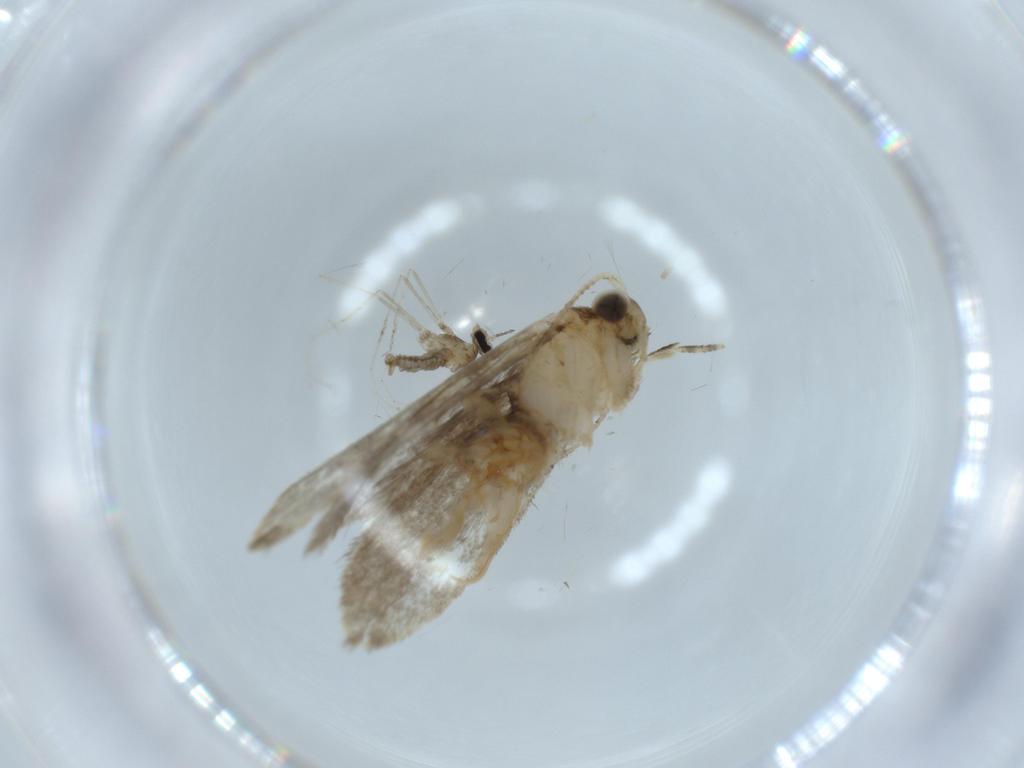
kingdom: Animalia
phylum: Arthropoda
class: Insecta
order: Lepidoptera
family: Tineidae
